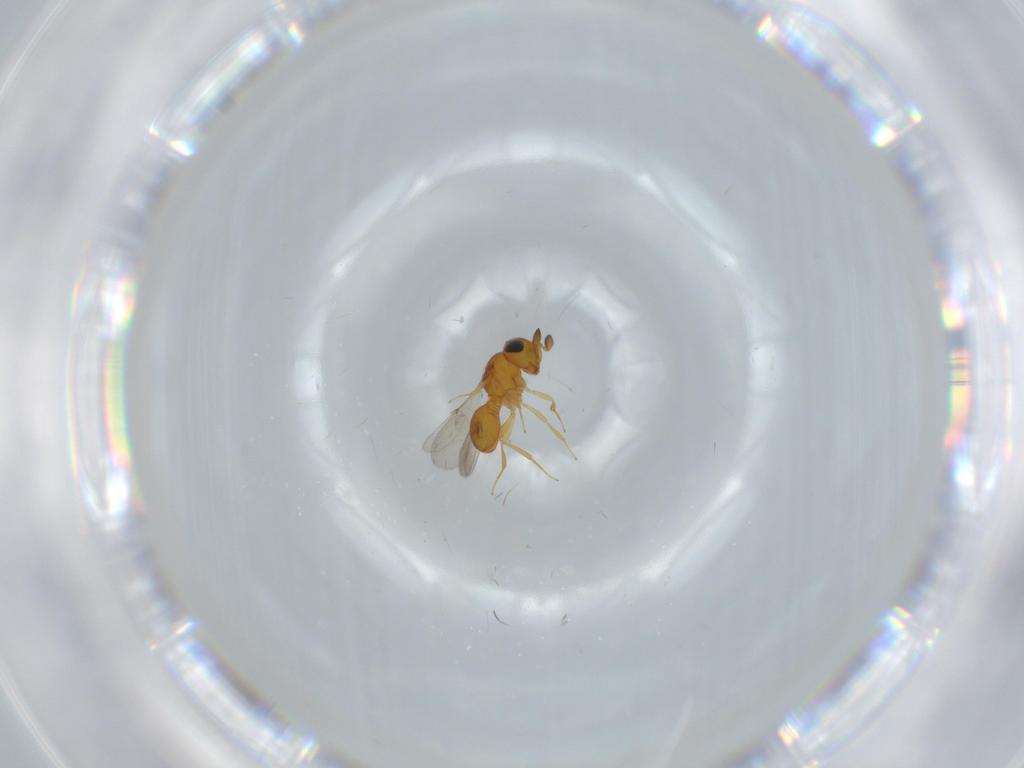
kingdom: Animalia
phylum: Arthropoda
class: Insecta
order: Hymenoptera
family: Scelionidae
